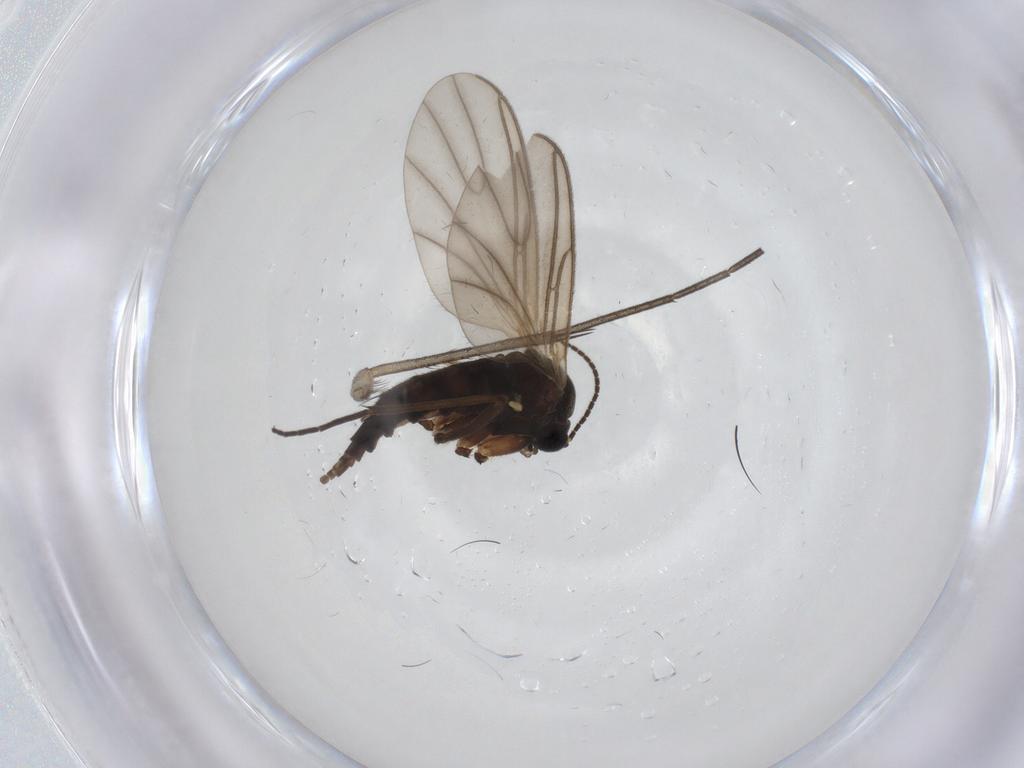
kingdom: Animalia
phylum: Arthropoda
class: Insecta
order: Diptera
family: Sciaridae
